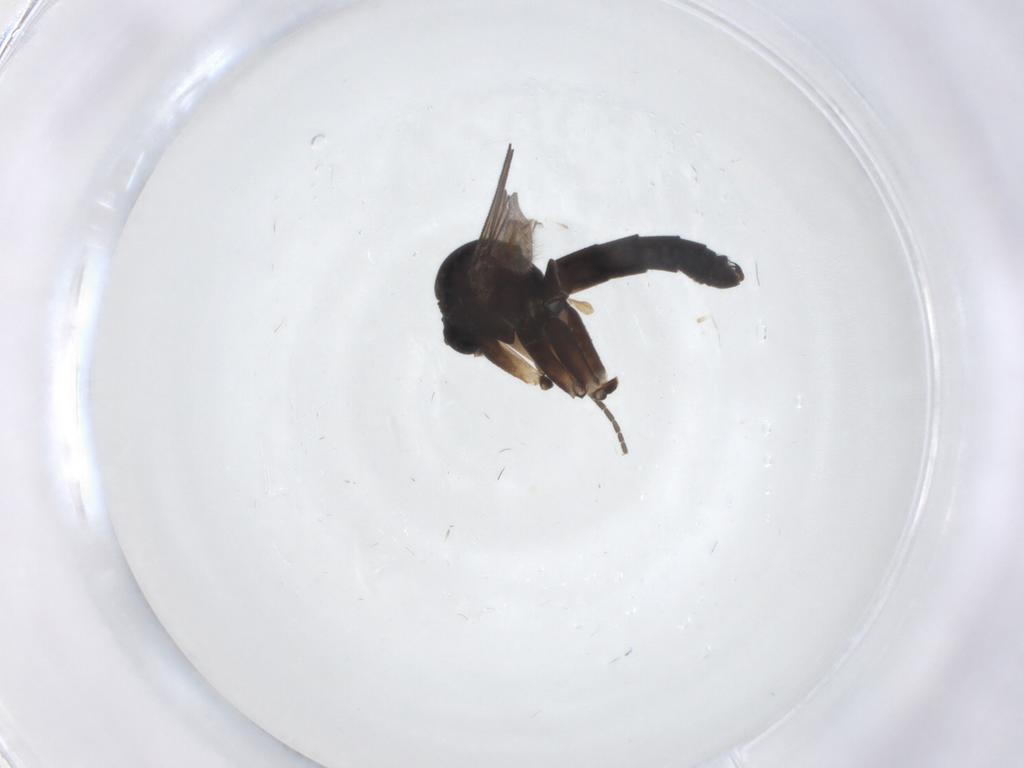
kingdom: Animalia
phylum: Arthropoda
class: Insecta
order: Diptera
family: Sciaridae
